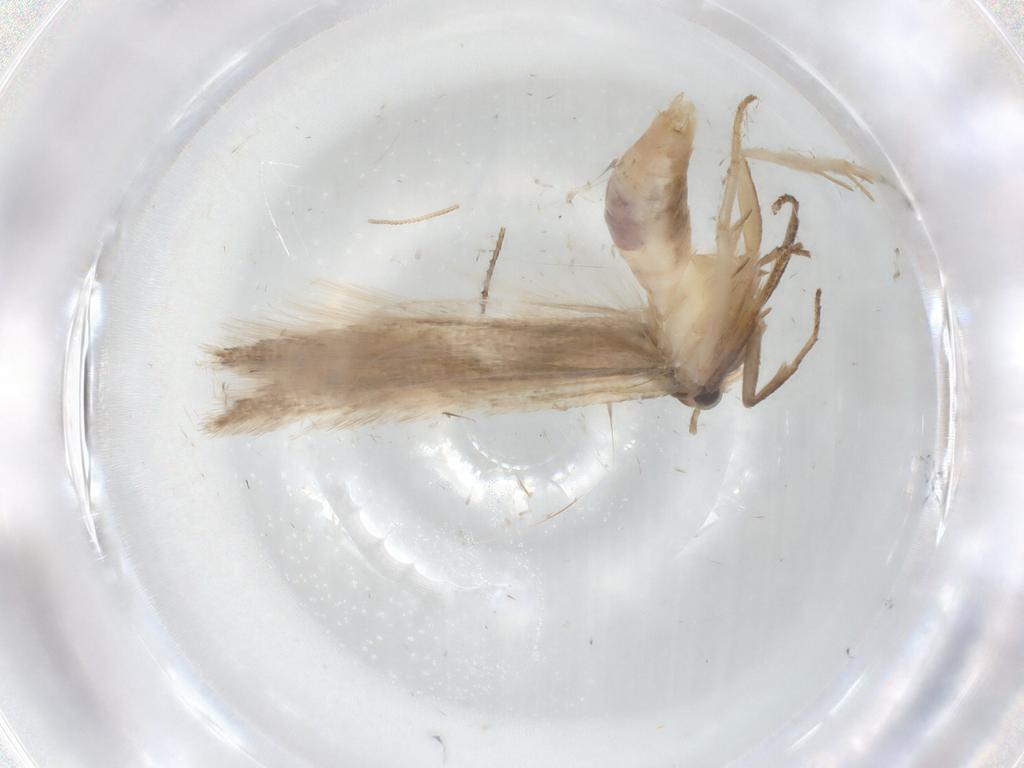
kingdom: Animalia
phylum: Arthropoda
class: Insecta
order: Lepidoptera
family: Gelechiidae
